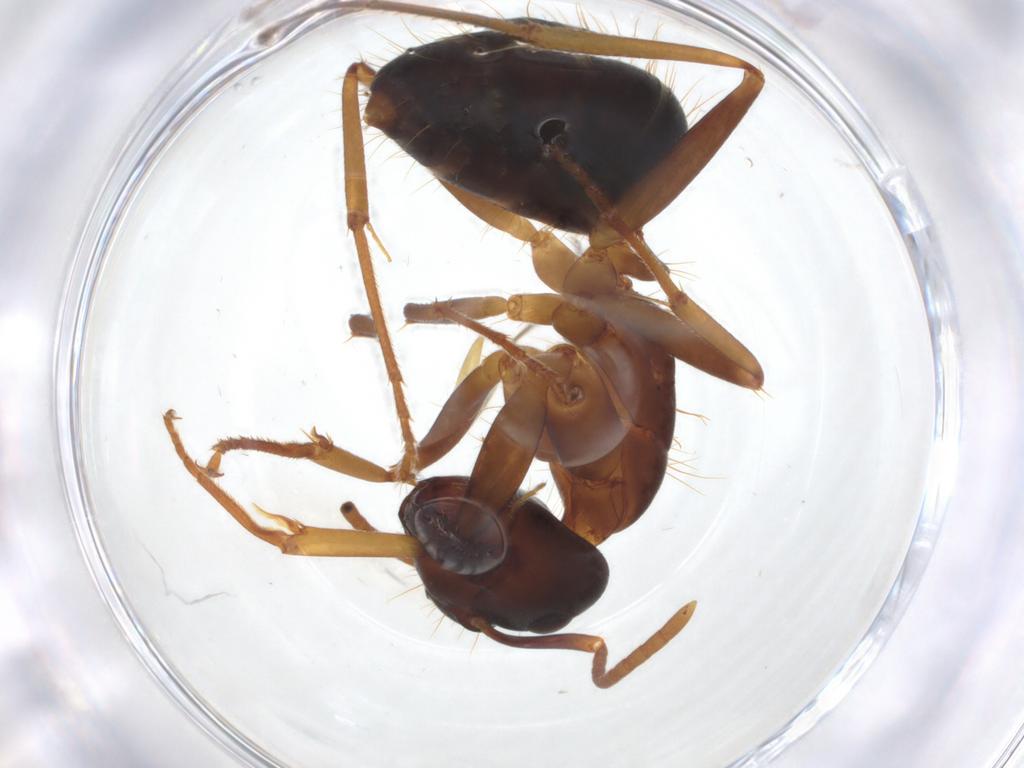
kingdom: Animalia
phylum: Arthropoda
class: Insecta
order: Hymenoptera
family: Formicidae
